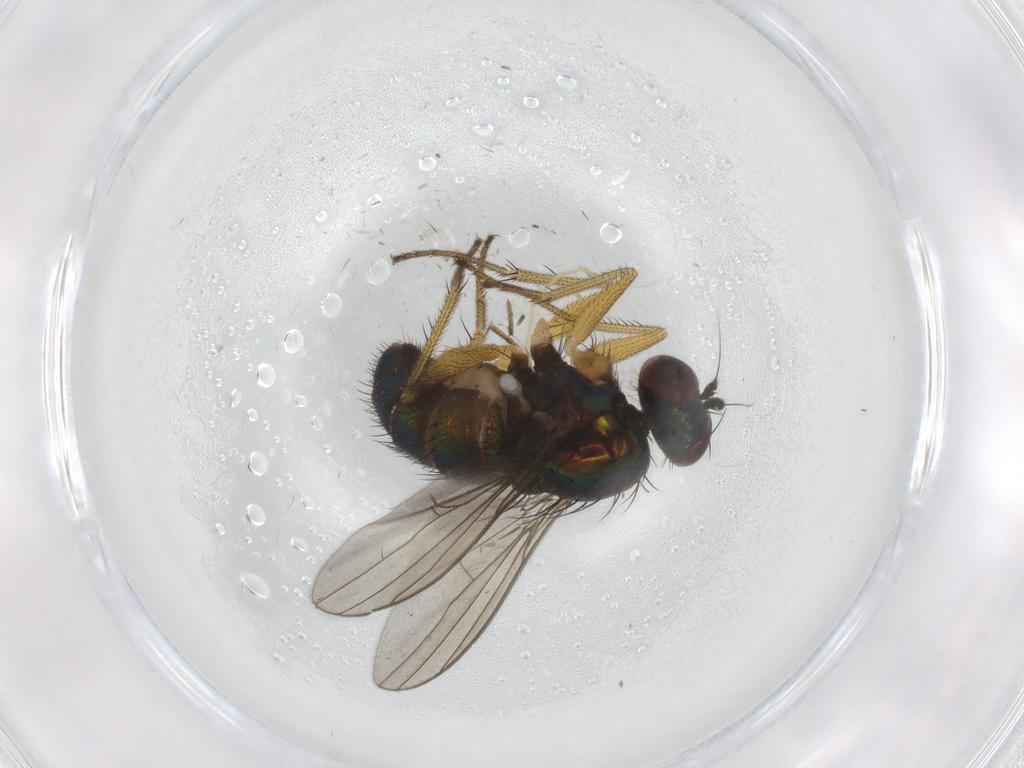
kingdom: Animalia
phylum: Arthropoda
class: Insecta
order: Diptera
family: Dolichopodidae
